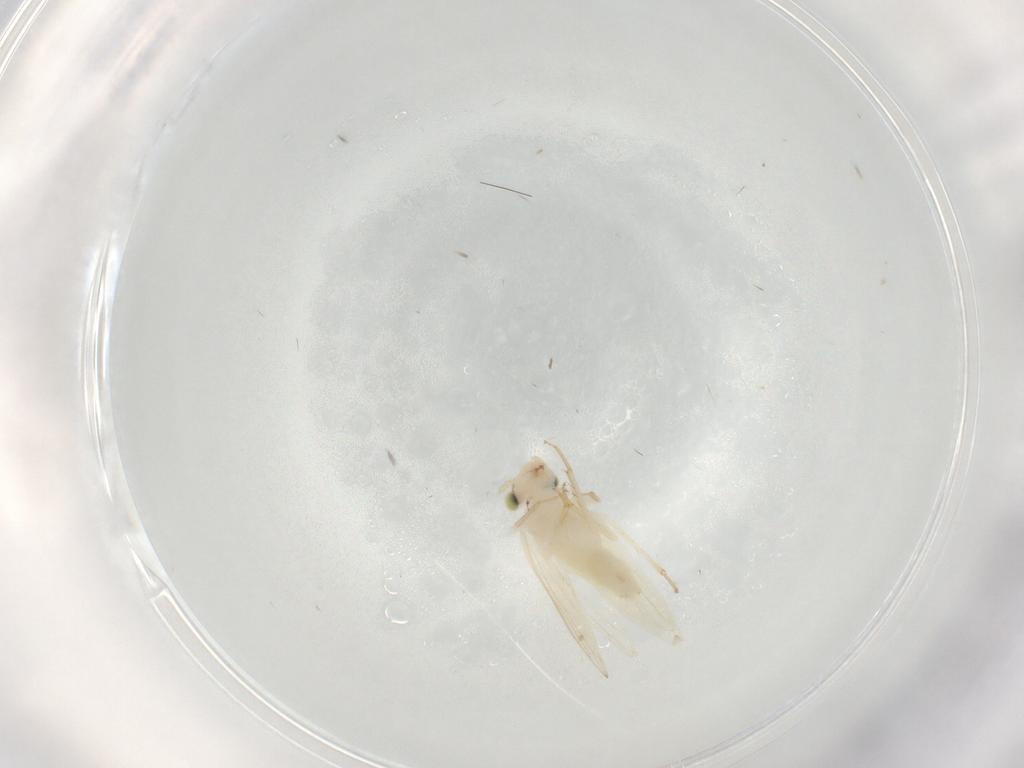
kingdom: Animalia
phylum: Arthropoda
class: Insecta
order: Psocodea
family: Lepidopsocidae
